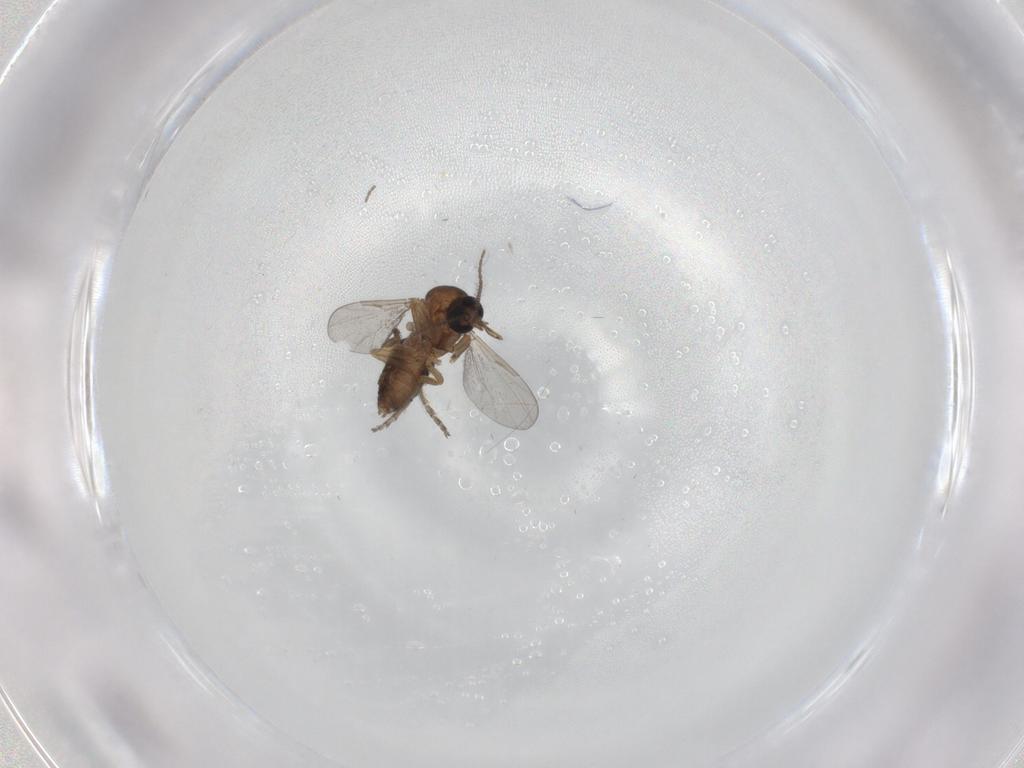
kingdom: Animalia
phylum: Arthropoda
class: Insecta
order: Diptera
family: Ceratopogonidae
